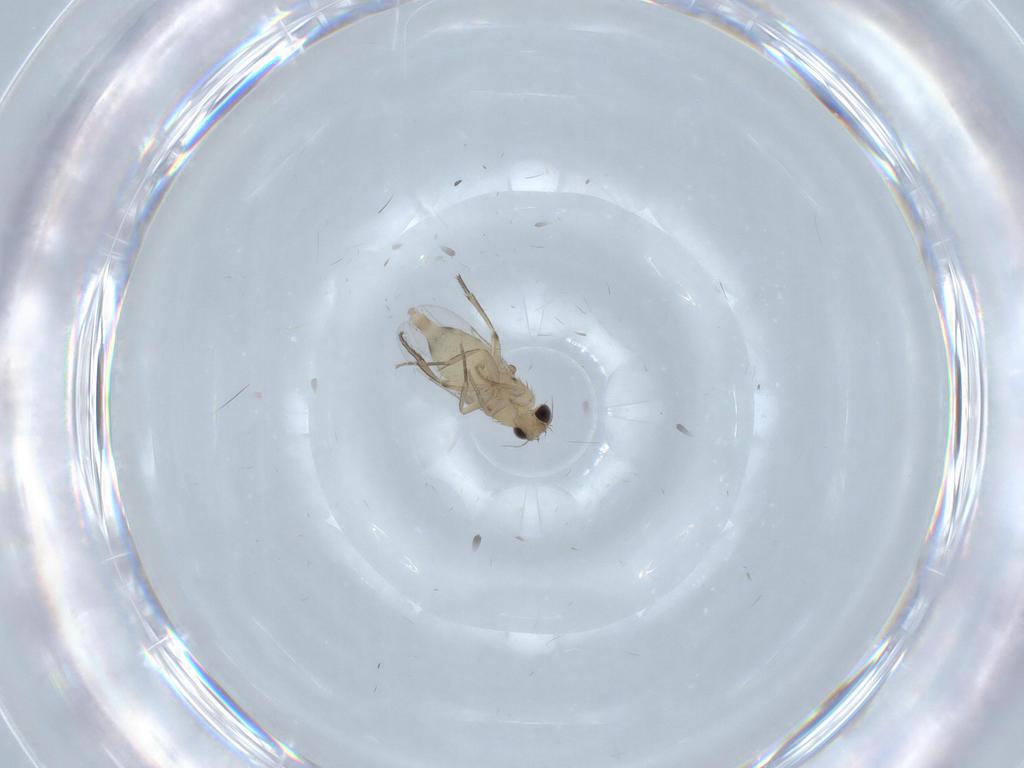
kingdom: Animalia
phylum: Arthropoda
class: Insecta
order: Diptera
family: Phoridae
